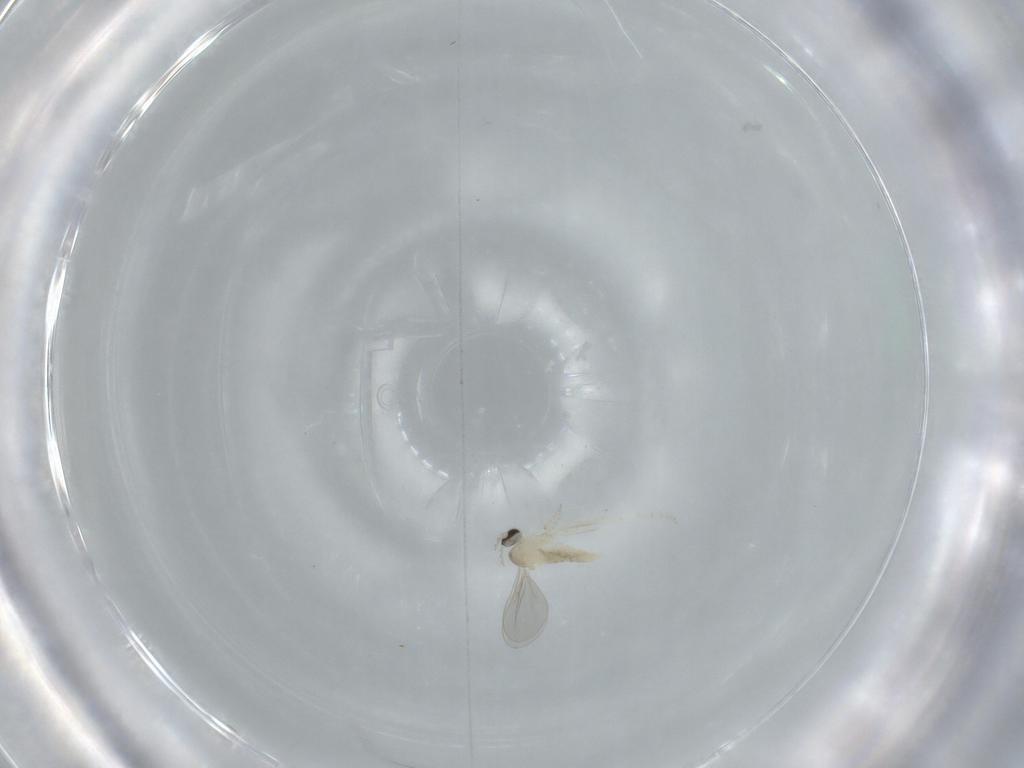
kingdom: Animalia
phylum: Arthropoda
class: Insecta
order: Diptera
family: Cecidomyiidae
